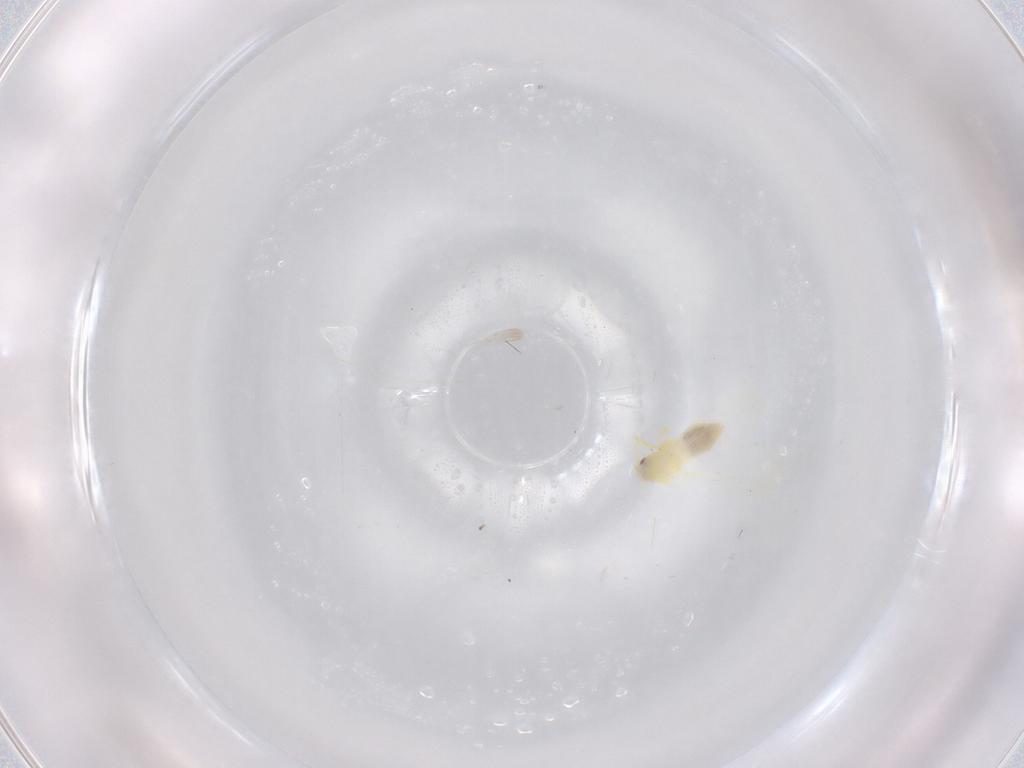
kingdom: Animalia
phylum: Arthropoda
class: Insecta
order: Hemiptera
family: Aleyrodidae
